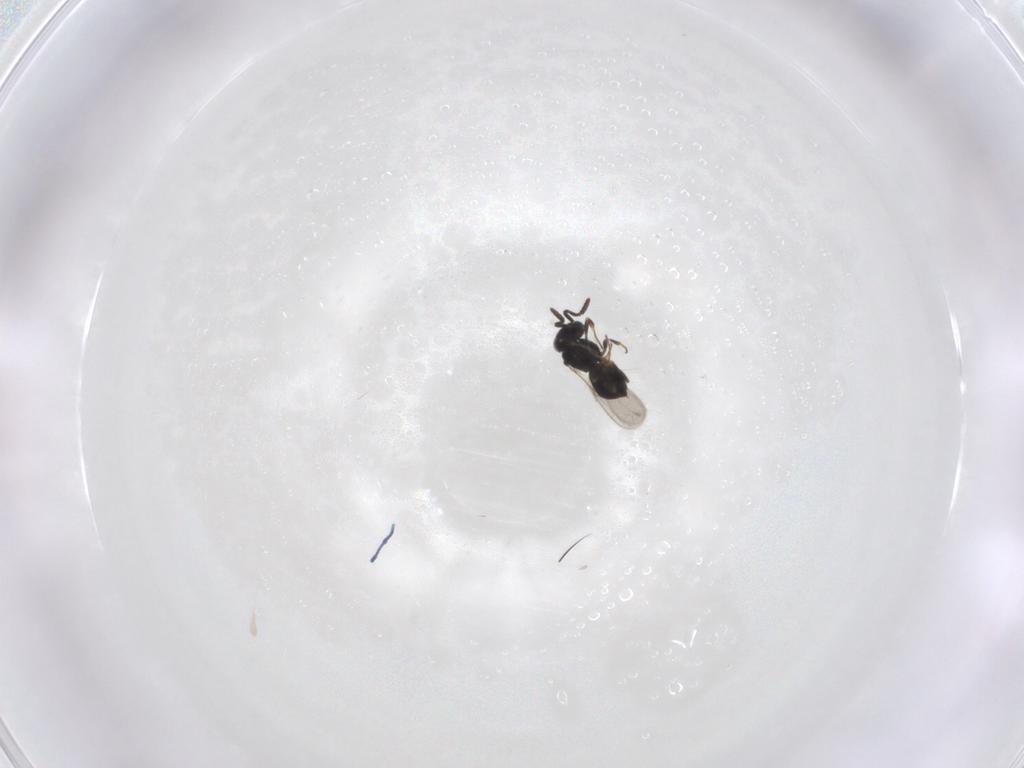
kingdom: Animalia
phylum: Arthropoda
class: Insecta
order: Hymenoptera
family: Scelionidae
